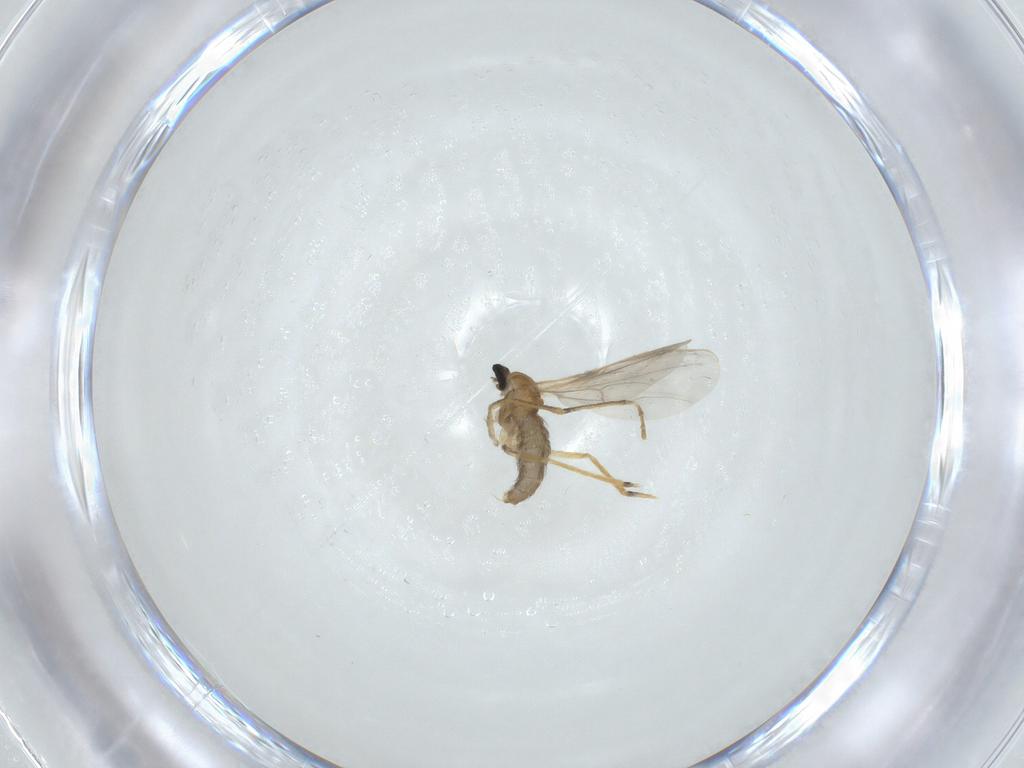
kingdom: Animalia
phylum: Arthropoda
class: Insecta
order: Diptera
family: Cecidomyiidae
